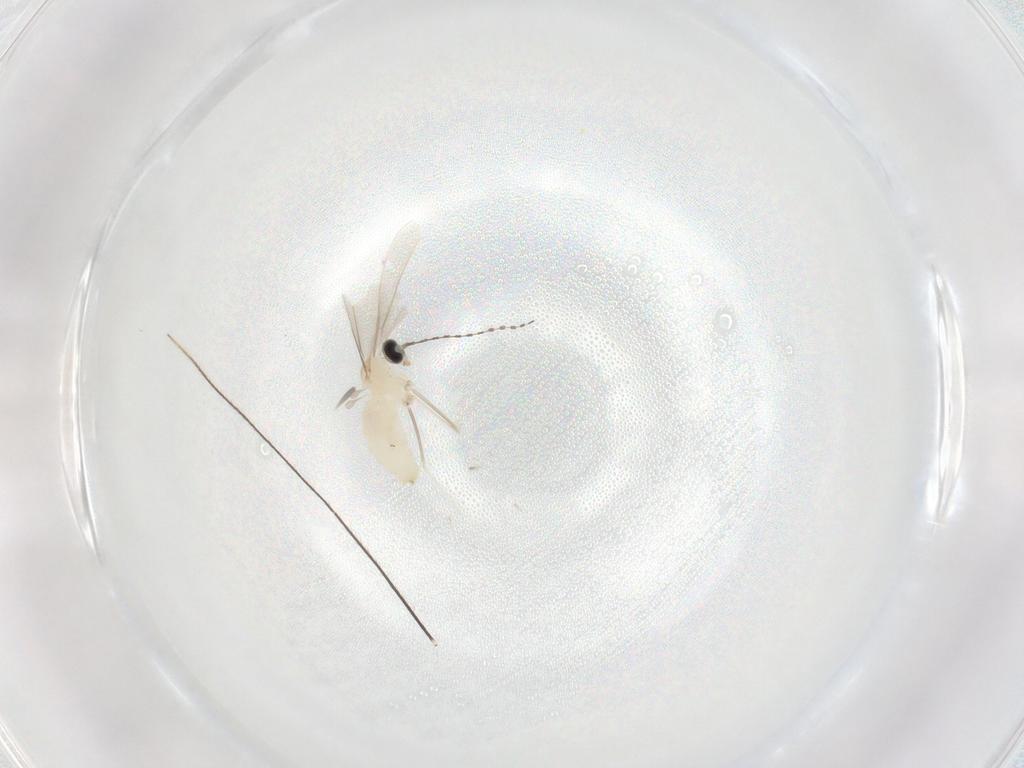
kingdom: Animalia
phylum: Arthropoda
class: Insecta
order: Diptera
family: Cecidomyiidae
